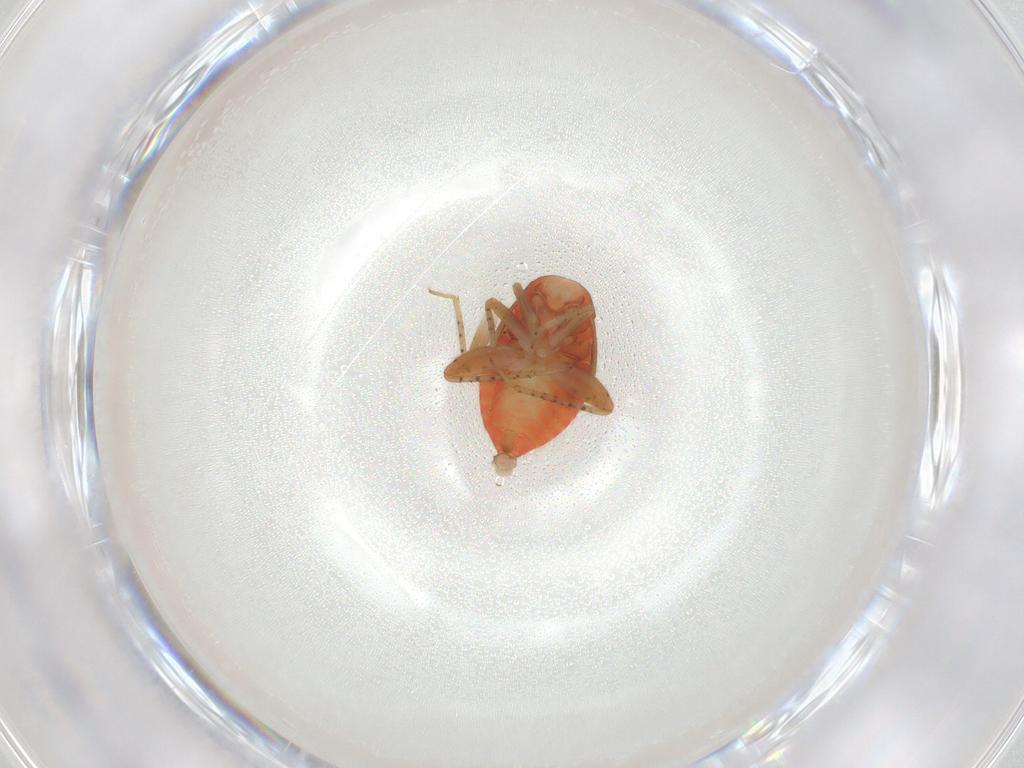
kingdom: Animalia
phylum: Arthropoda
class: Insecta
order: Hemiptera
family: Miridae
